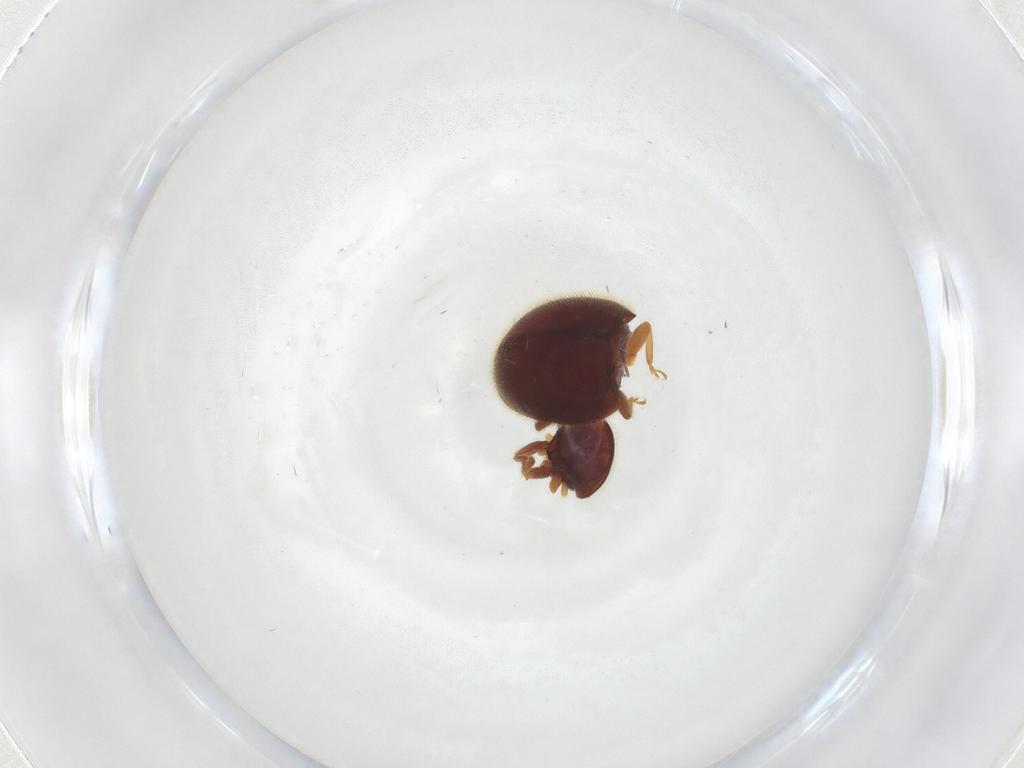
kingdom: Animalia
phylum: Arthropoda
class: Insecta
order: Coleoptera
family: Coccinellidae
